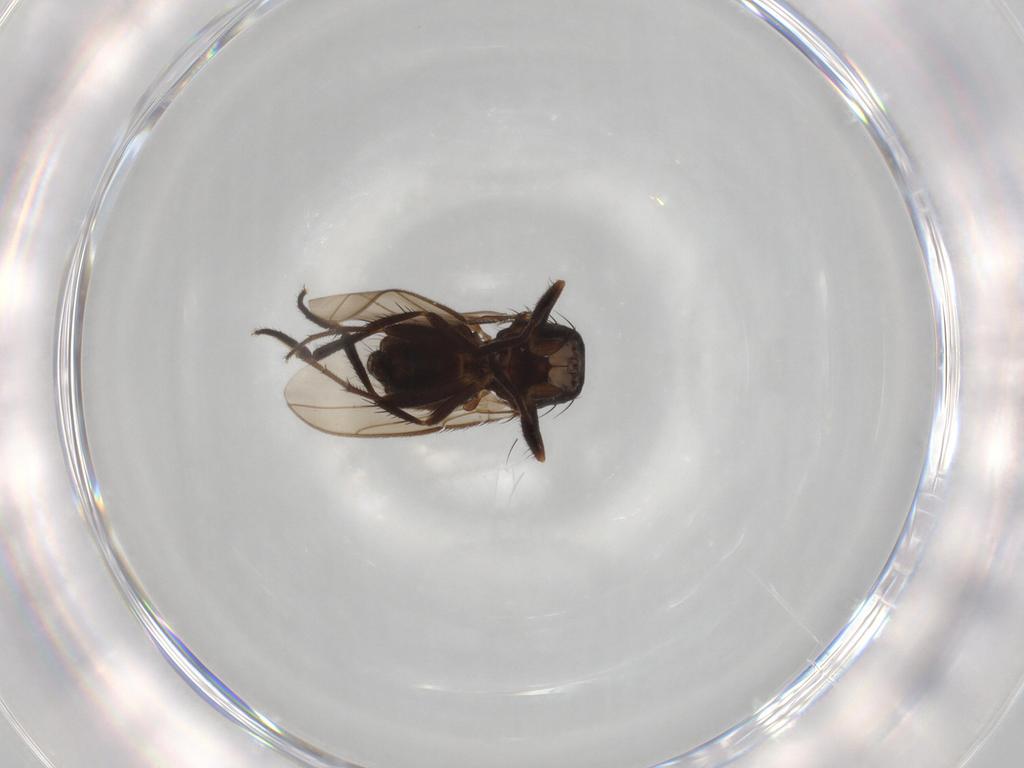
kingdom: Animalia
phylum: Arthropoda
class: Insecta
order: Diptera
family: Sphaeroceridae
